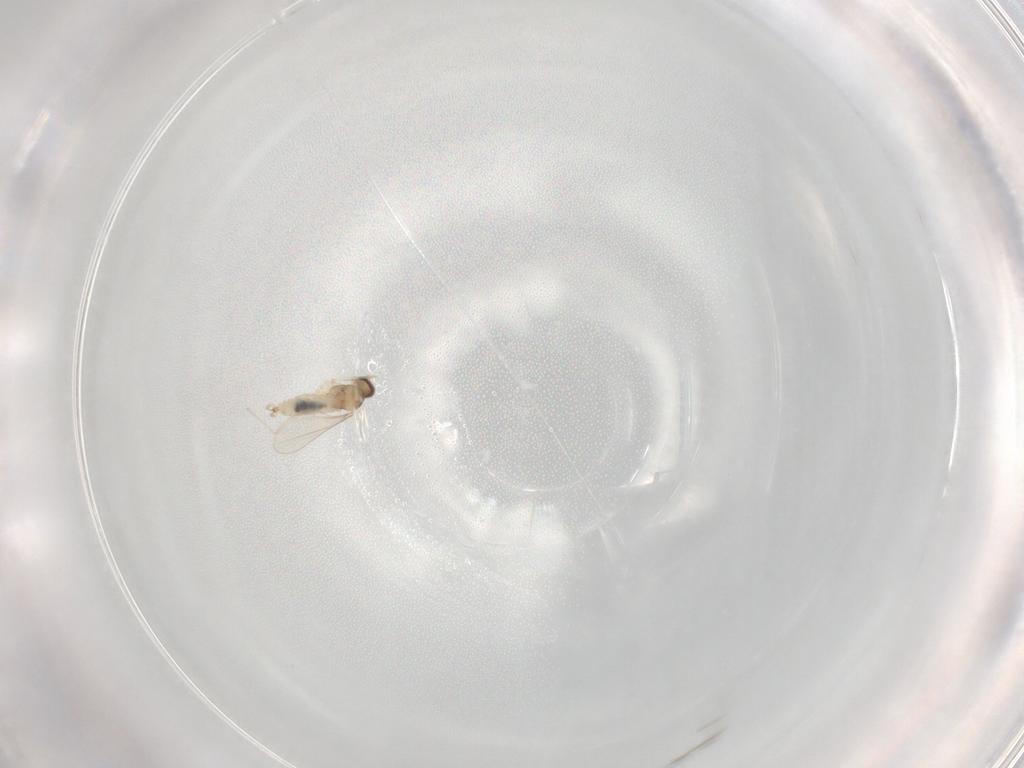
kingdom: Animalia
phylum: Arthropoda
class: Insecta
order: Diptera
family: Cecidomyiidae
